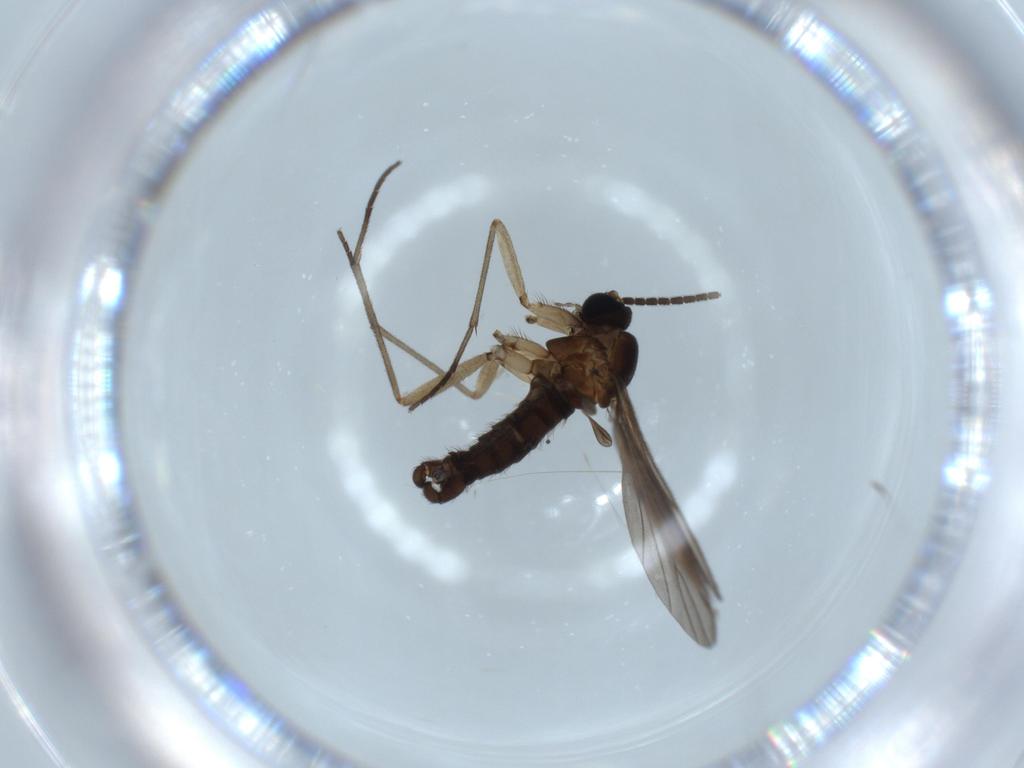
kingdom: Animalia
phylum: Arthropoda
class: Insecta
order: Diptera
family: Sciaridae
